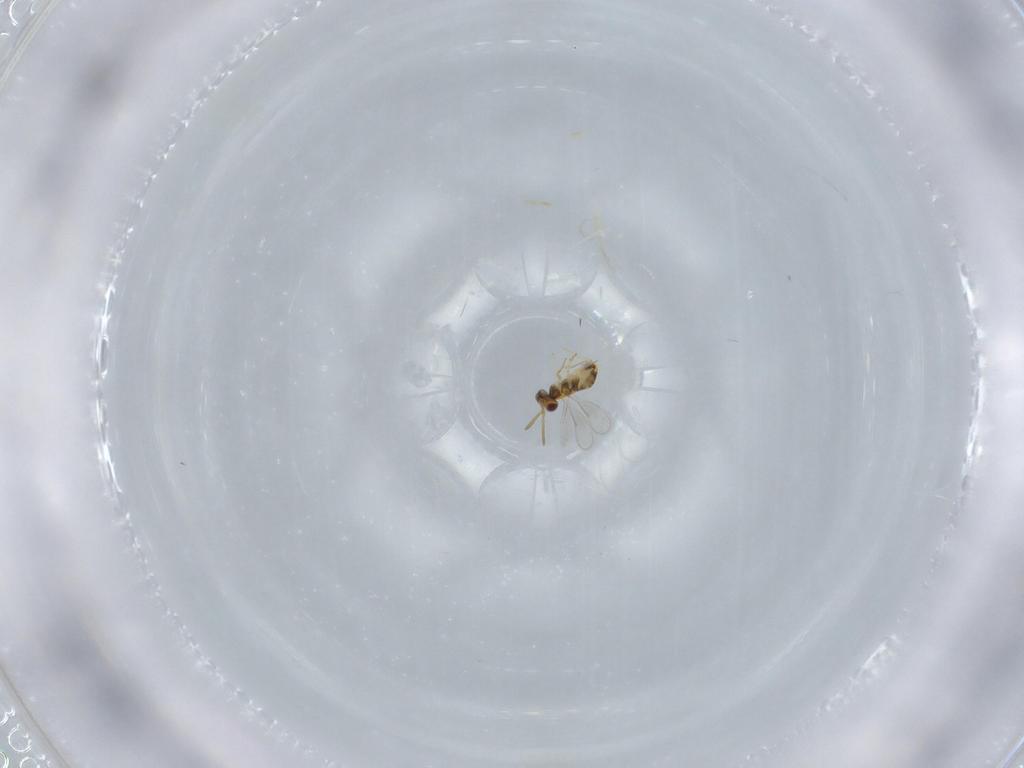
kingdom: Animalia
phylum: Arthropoda
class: Insecta
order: Hymenoptera
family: Aphelinidae
